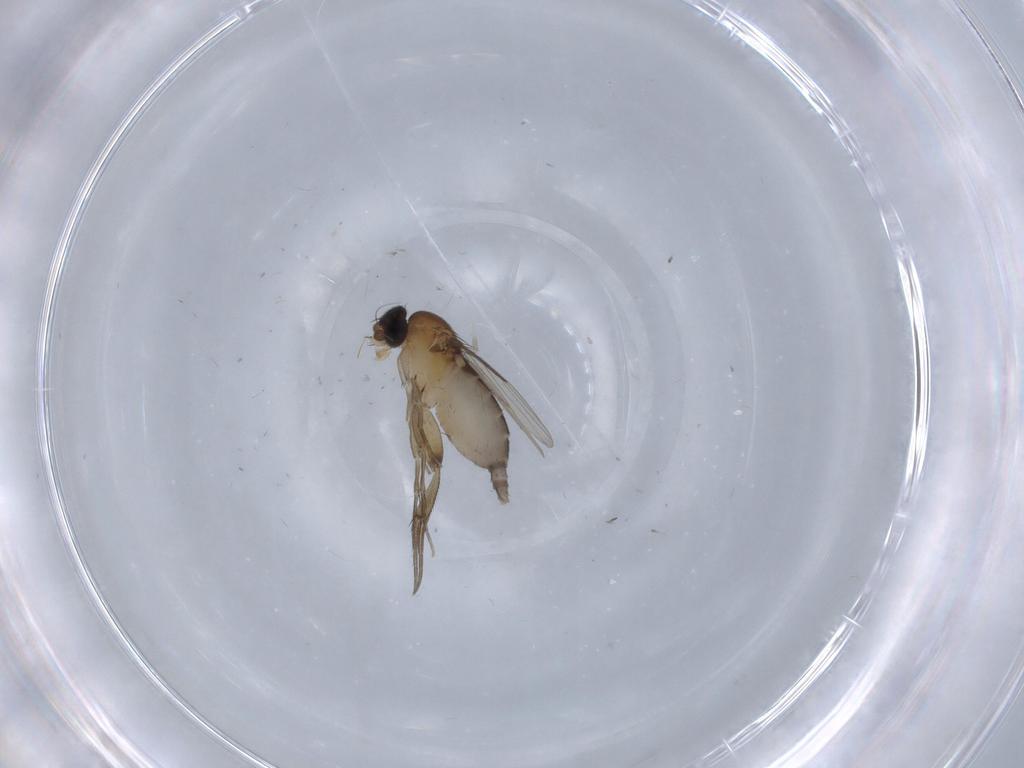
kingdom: Animalia
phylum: Arthropoda
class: Insecta
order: Diptera
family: Phoridae
